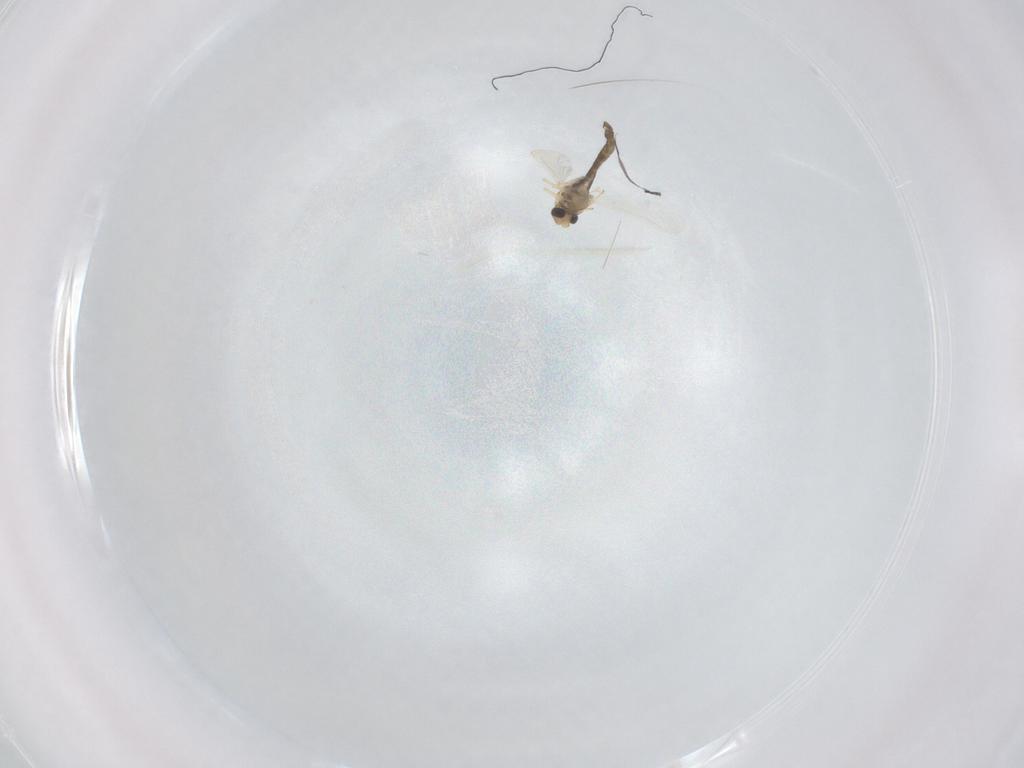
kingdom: Animalia
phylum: Arthropoda
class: Insecta
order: Diptera
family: Chironomidae
